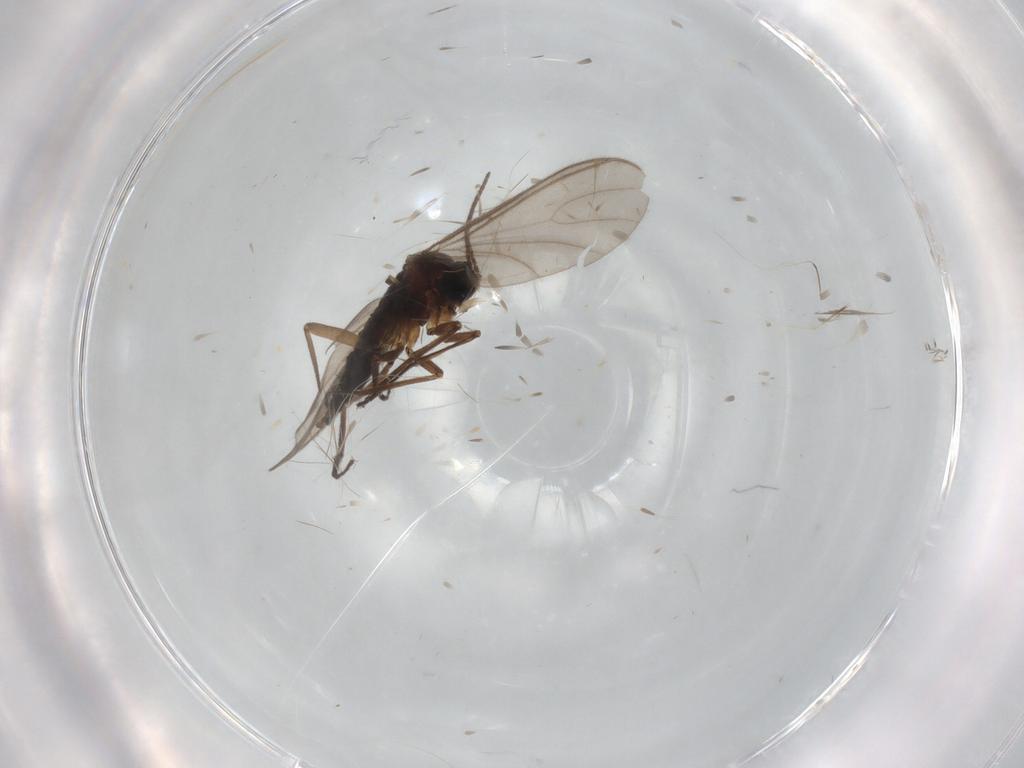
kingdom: Animalia
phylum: Arthropoda
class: Insecta
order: Diptera
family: Sciaridae
